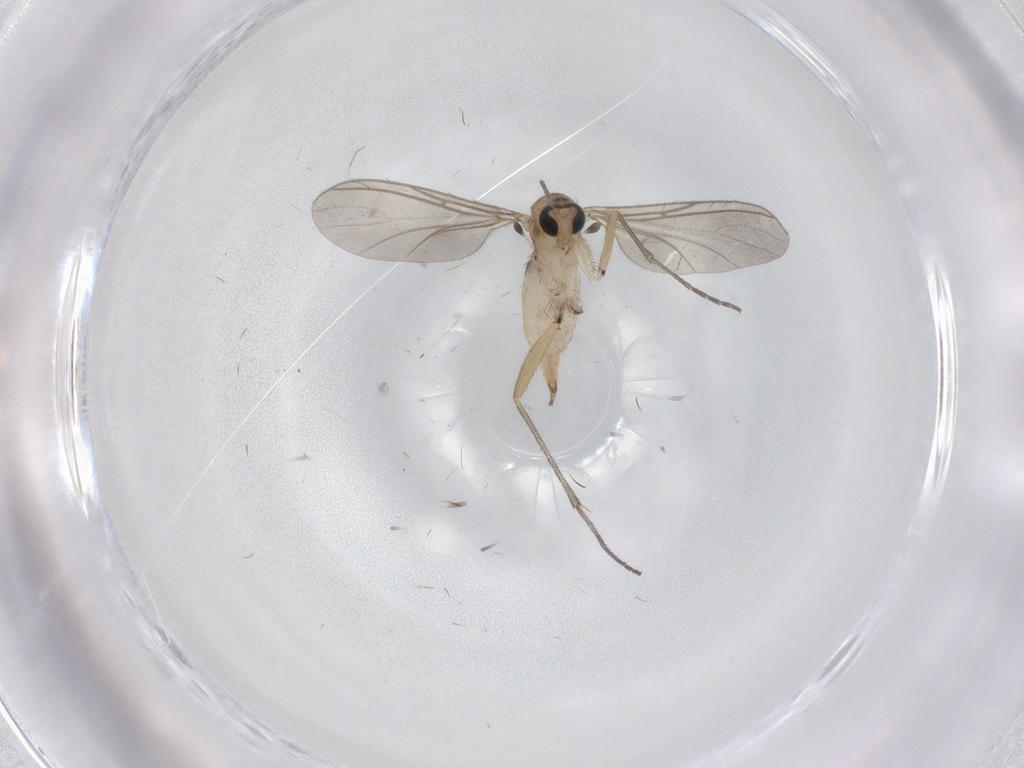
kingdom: Animalia
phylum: Arthropoda
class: Insecta
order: Diptera
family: Sciaridae
